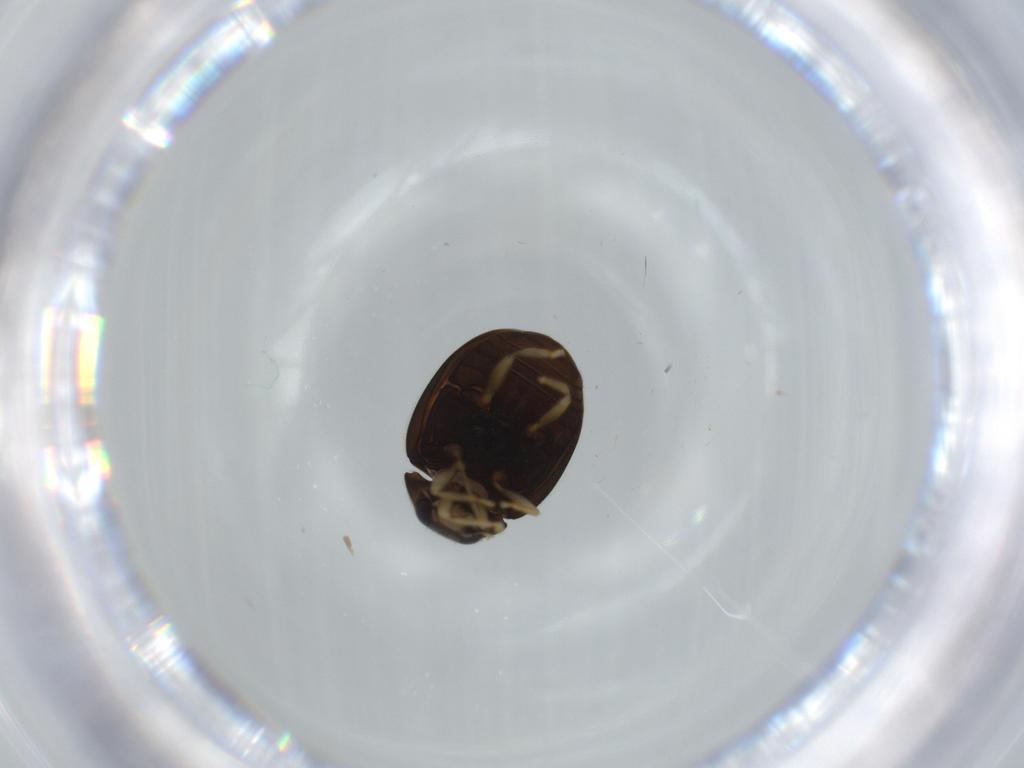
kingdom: Animalia
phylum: Arthropoda
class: Insecta
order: Coleoptera
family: Coccinellidae
